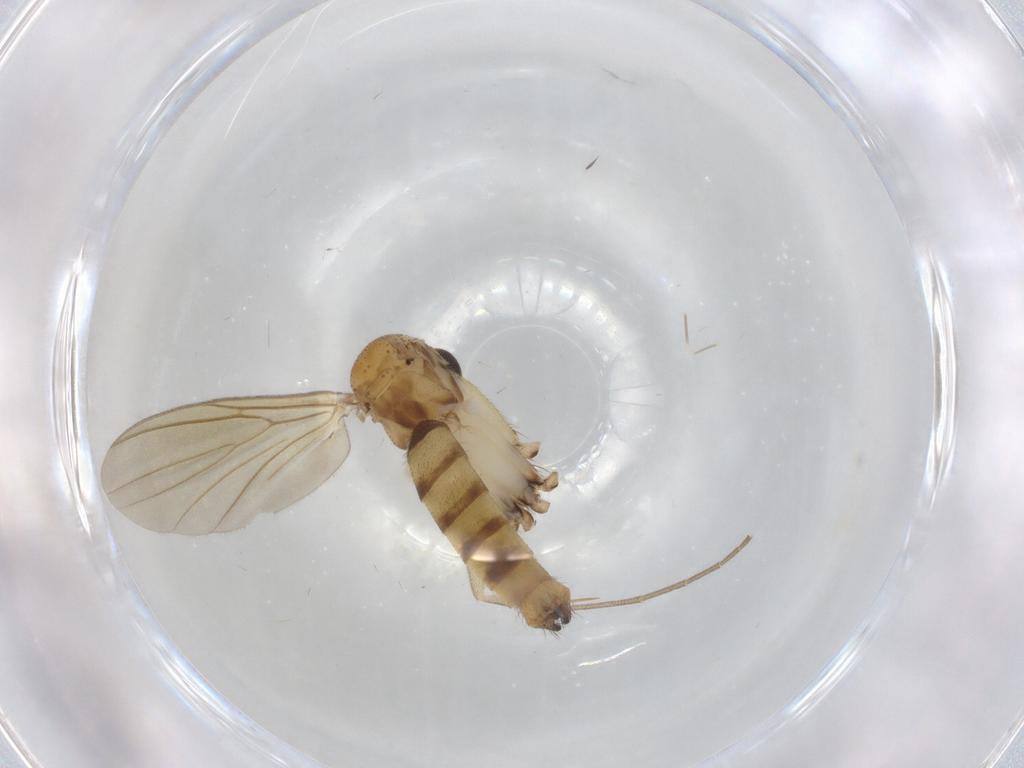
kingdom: Animalia
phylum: Arthropoda
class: Insecta
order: Diptera
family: Mycetophilidae
